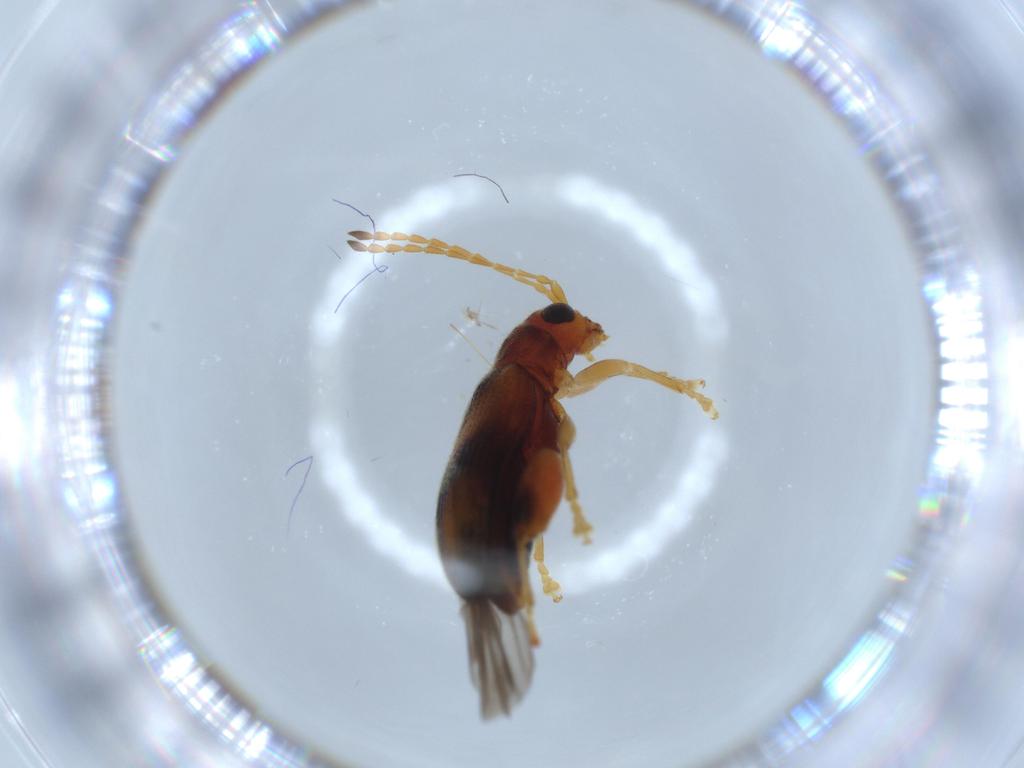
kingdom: Animalia
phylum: Arthropoda
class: Insecta
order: Coleoptera
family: Chrysomelidae
